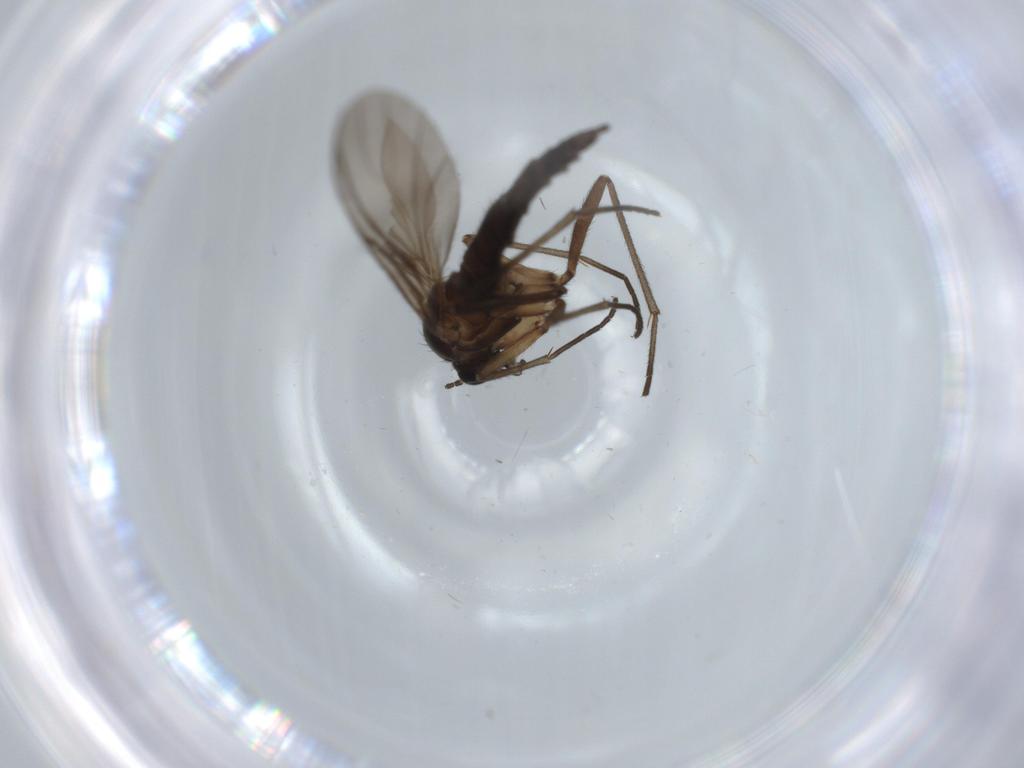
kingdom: Animalia
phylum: Arthropoda
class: Insecta
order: Diptera
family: Sciaridae
